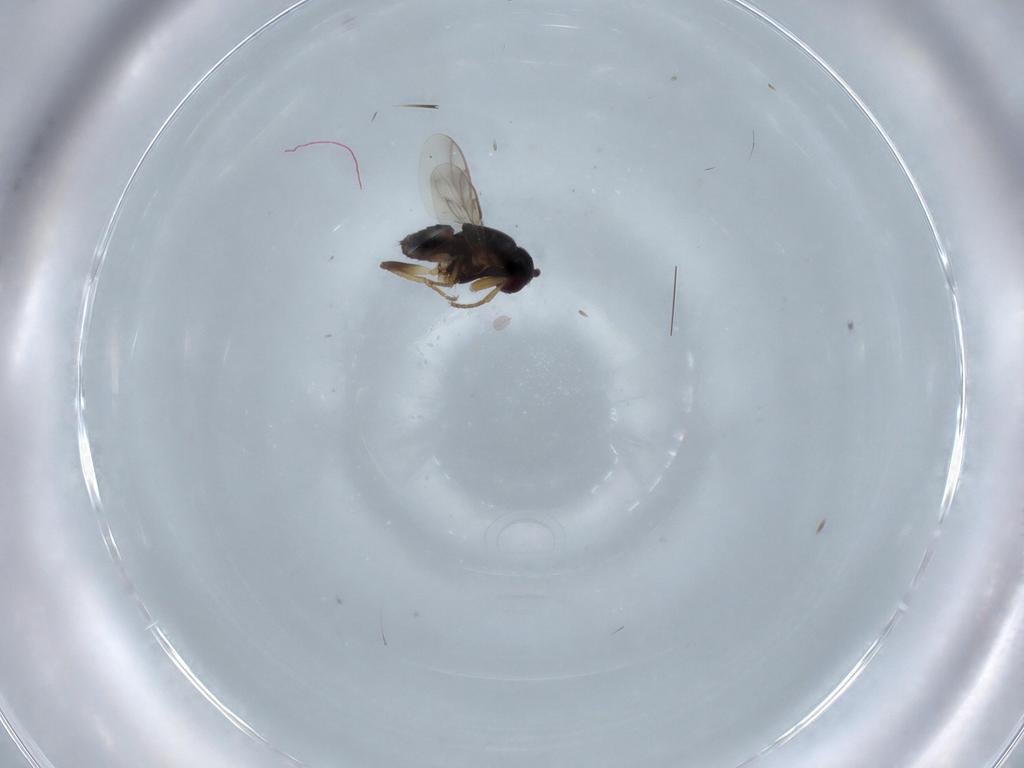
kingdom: Animalia
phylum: Arthropoda
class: Insecta
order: Diptera
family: Sphaeroceridae
